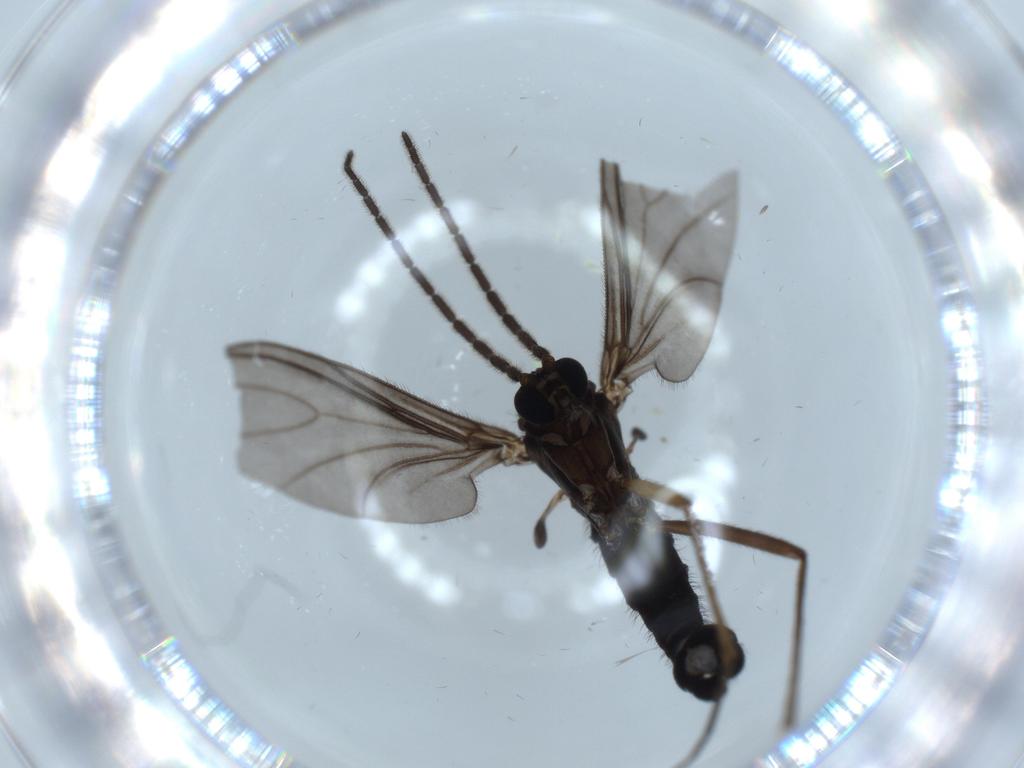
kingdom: Animalia
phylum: Arthropoda
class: Insecta
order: Diptera
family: Sciaridae
